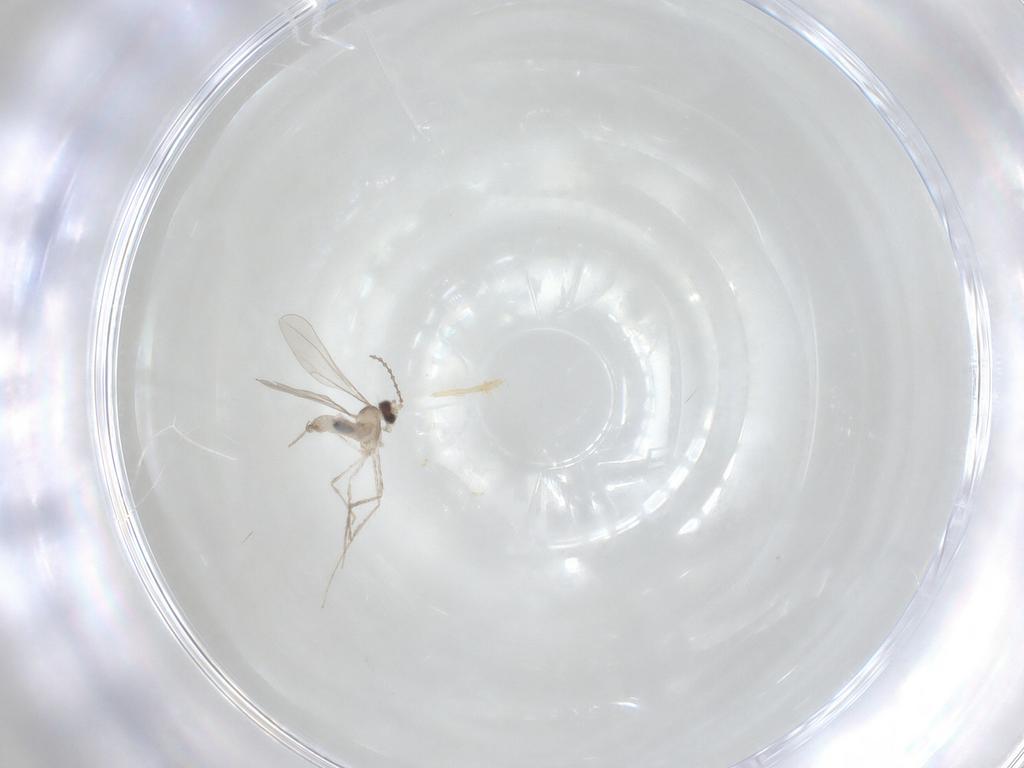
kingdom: Animalia
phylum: Arthropoda
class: Insecta
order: Diptera
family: Cecidomyiidae
